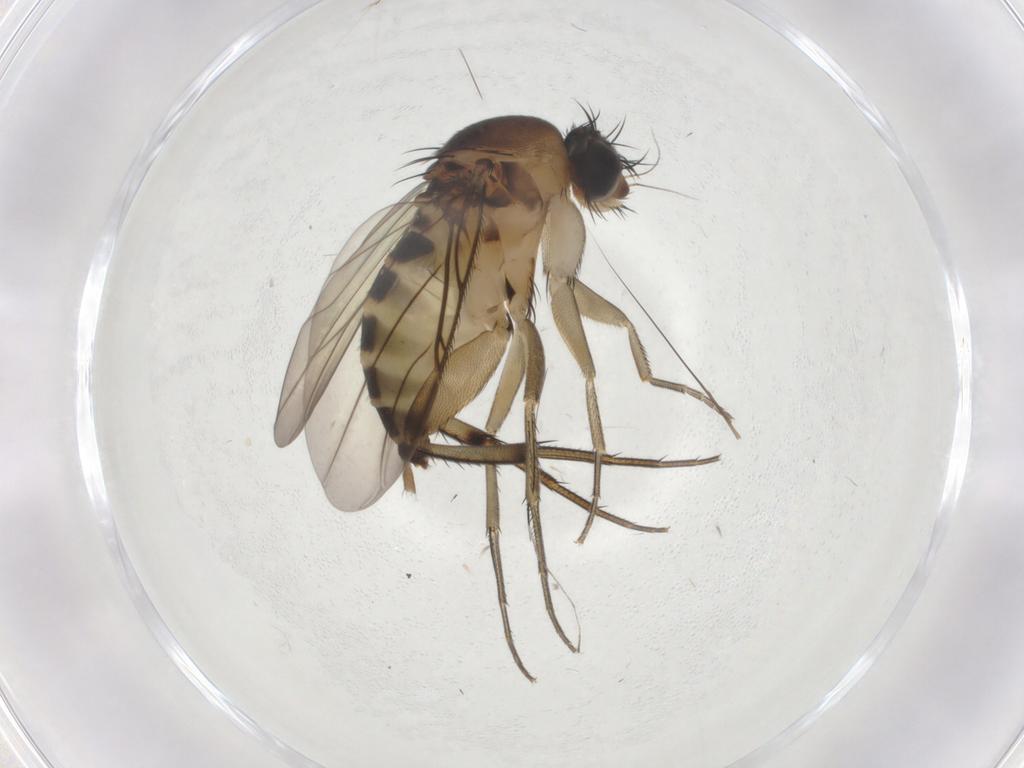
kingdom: Animalia
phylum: Arthropoda
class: Insecta
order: Diptera
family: Phoridae
